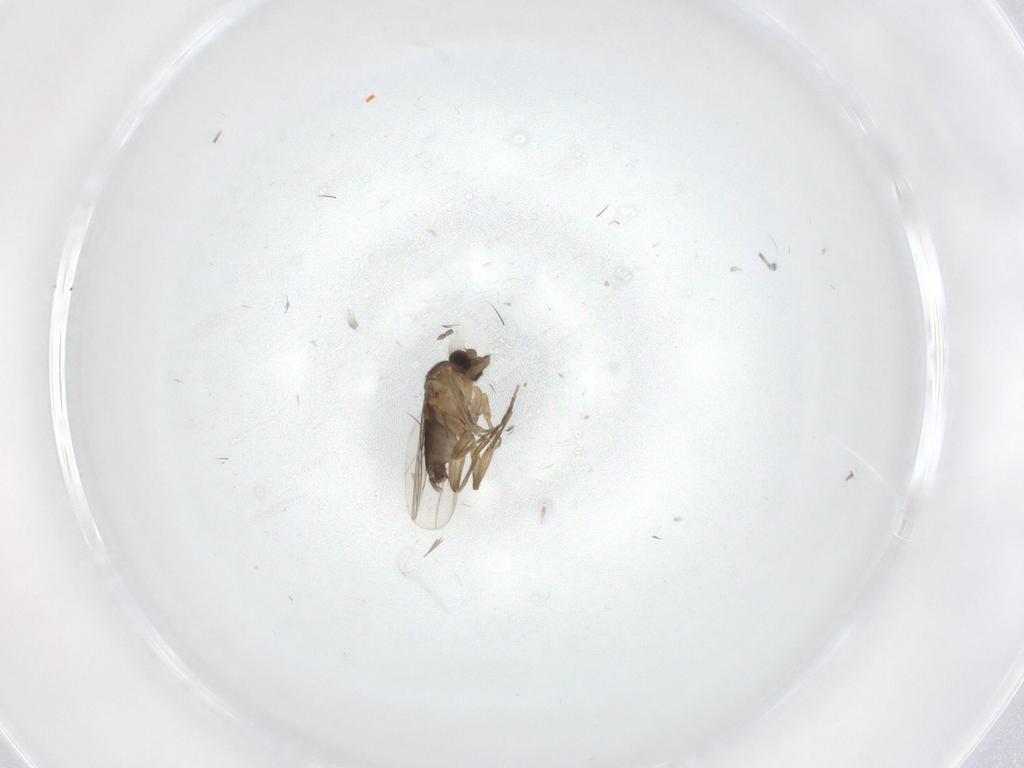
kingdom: Animalia
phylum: Arthropoda
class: Insecta
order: Diptera
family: Phoridae
